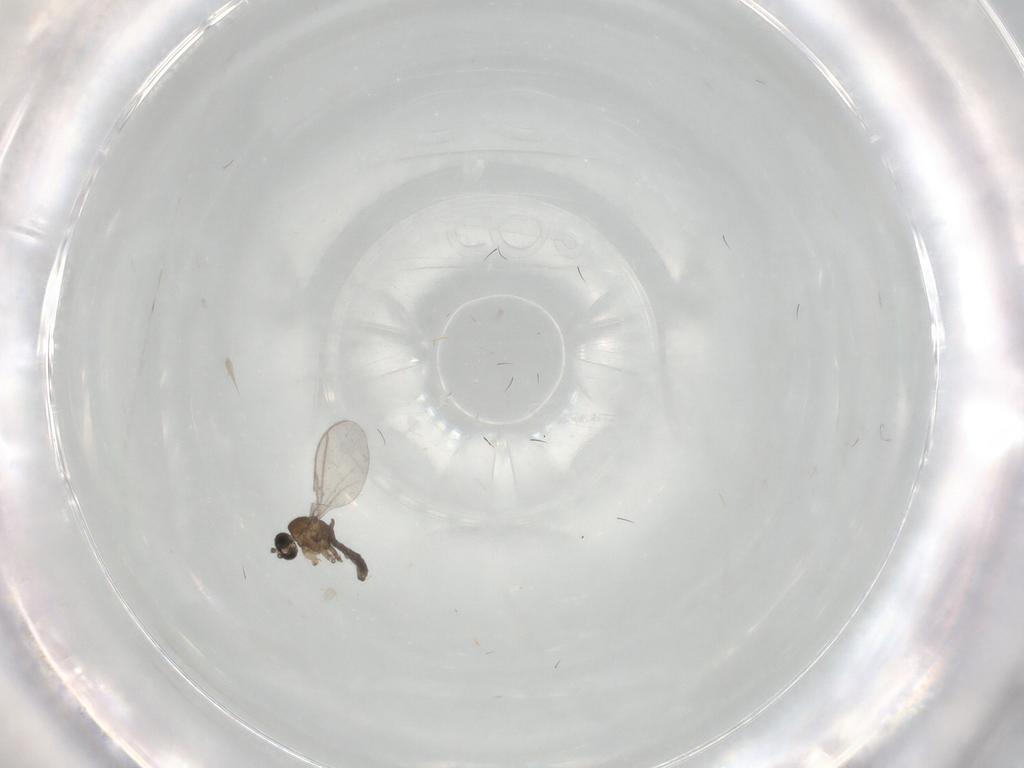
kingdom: Animalia
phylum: Arthropoda
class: Insecta
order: Diptera
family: Sciaridae
